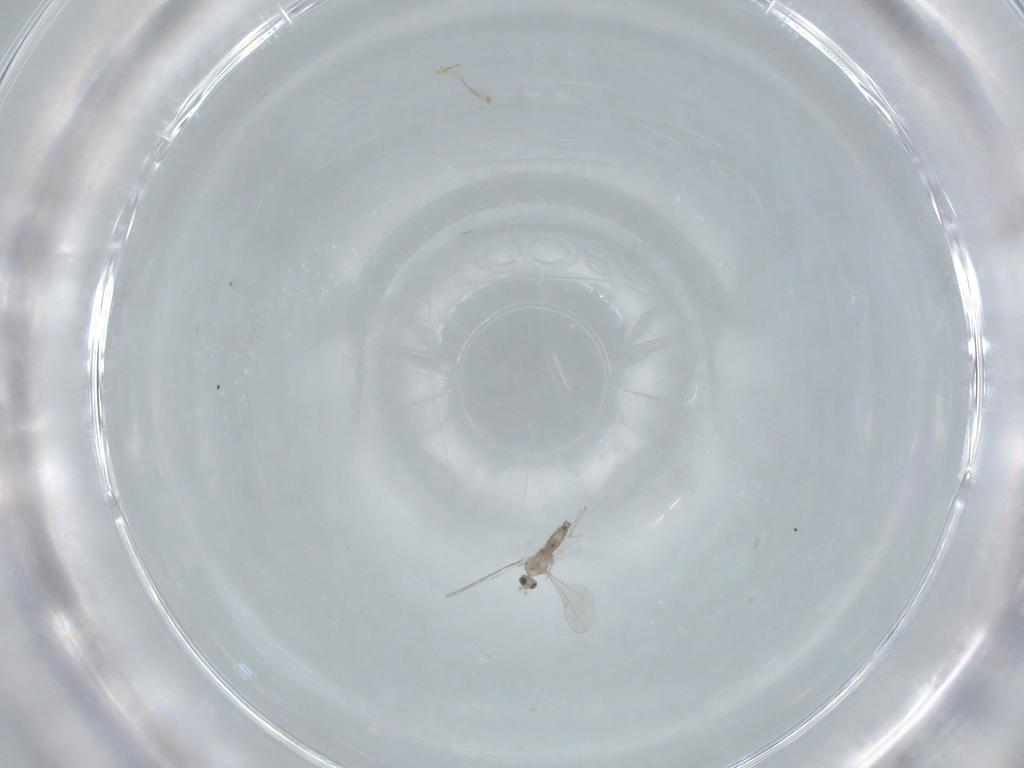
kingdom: Animalia
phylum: Arthropoda
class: Insecta
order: Diptera
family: Cecidomyiidae
